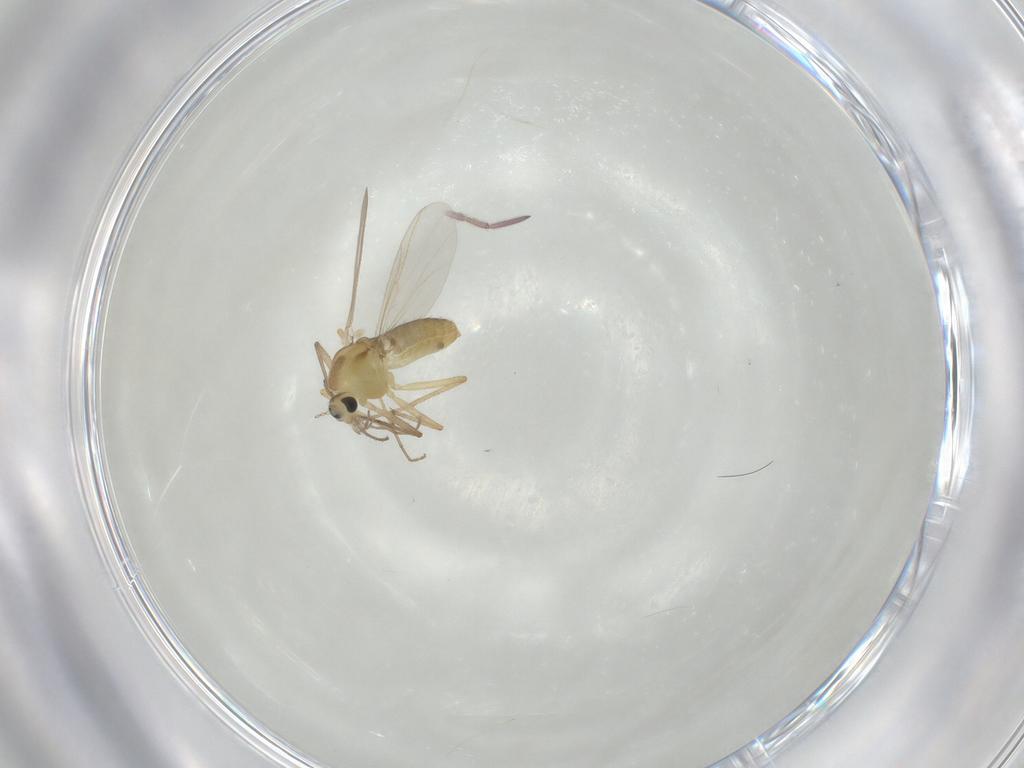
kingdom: Animalia
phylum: Arthropoda
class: Insecta
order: Diptera
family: Chironomidae
